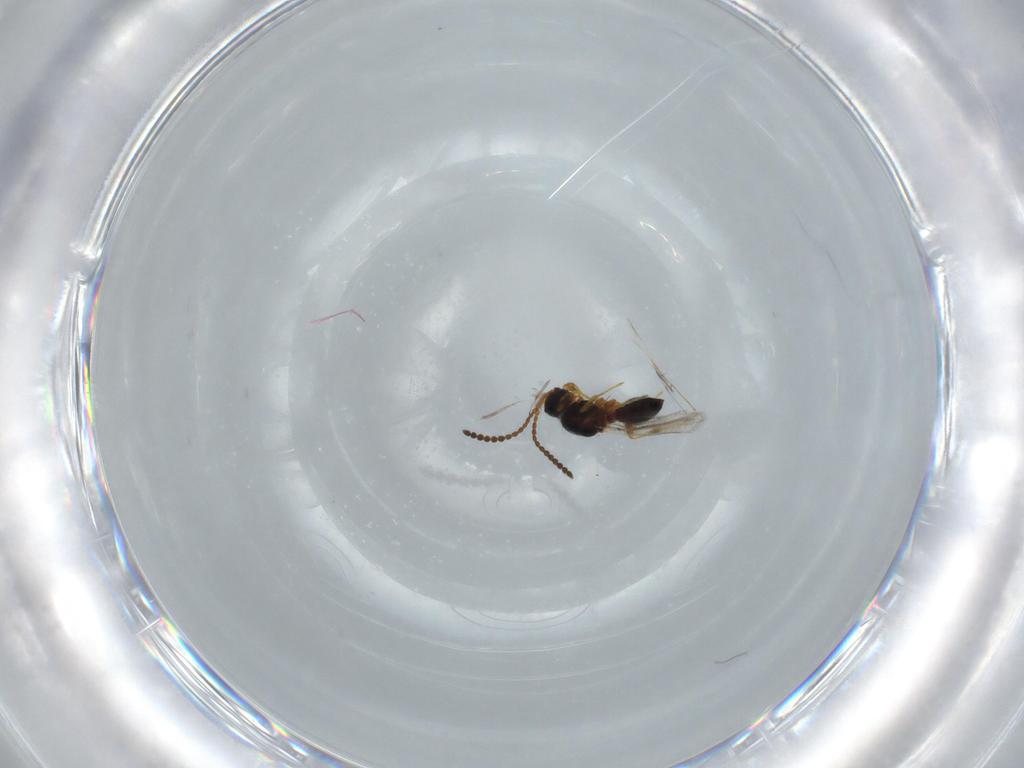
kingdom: Animalia
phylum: Arthropoda
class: Insecta
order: Hymenoptera
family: Diapriidae
